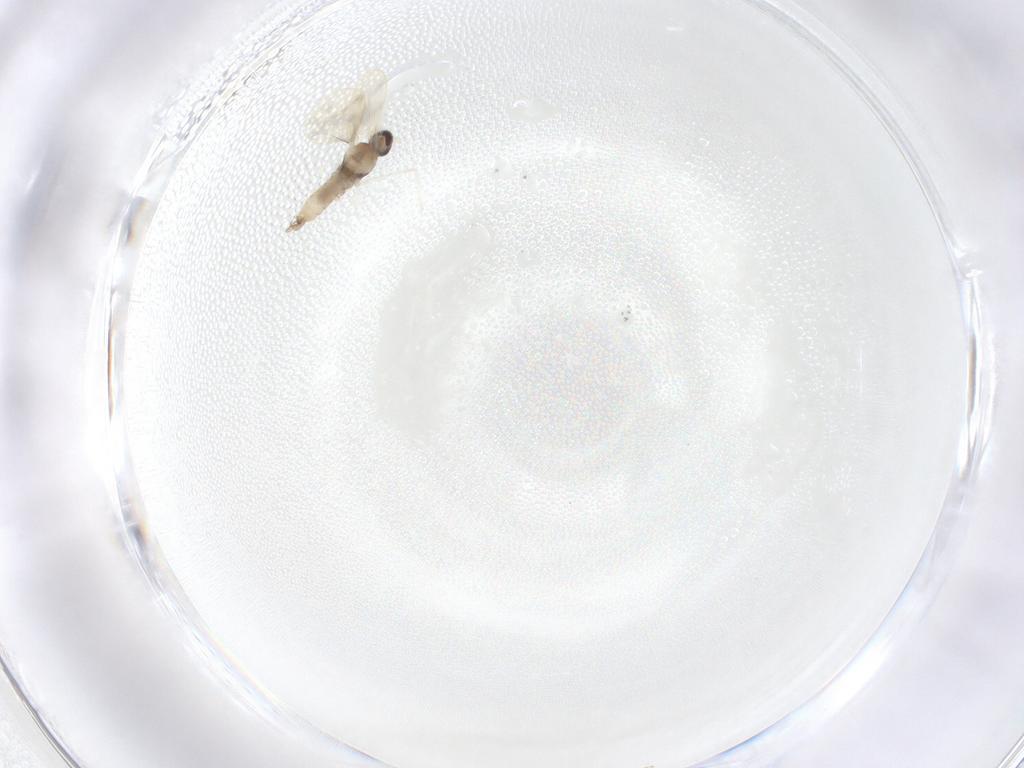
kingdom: Animalia
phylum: Arthropoda
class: Insecta
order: Diptera
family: Cecidomyiidae
